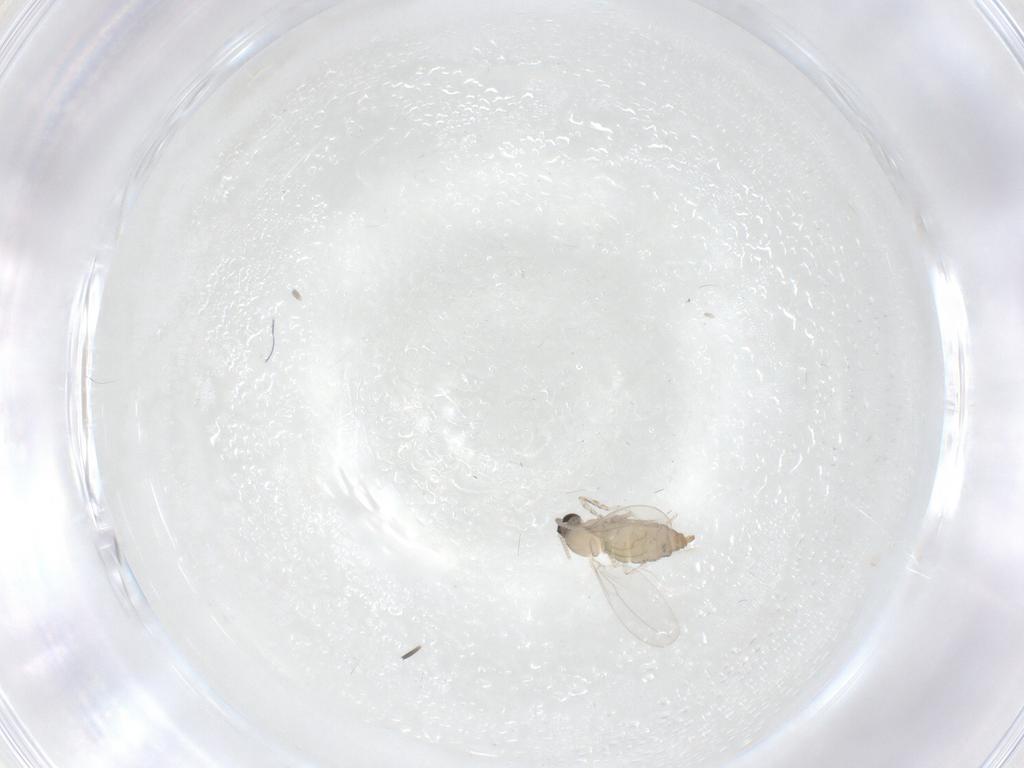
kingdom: Animalia
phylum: Arthropoda
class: Insecta
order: Diptera
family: Cecidomyiidae
